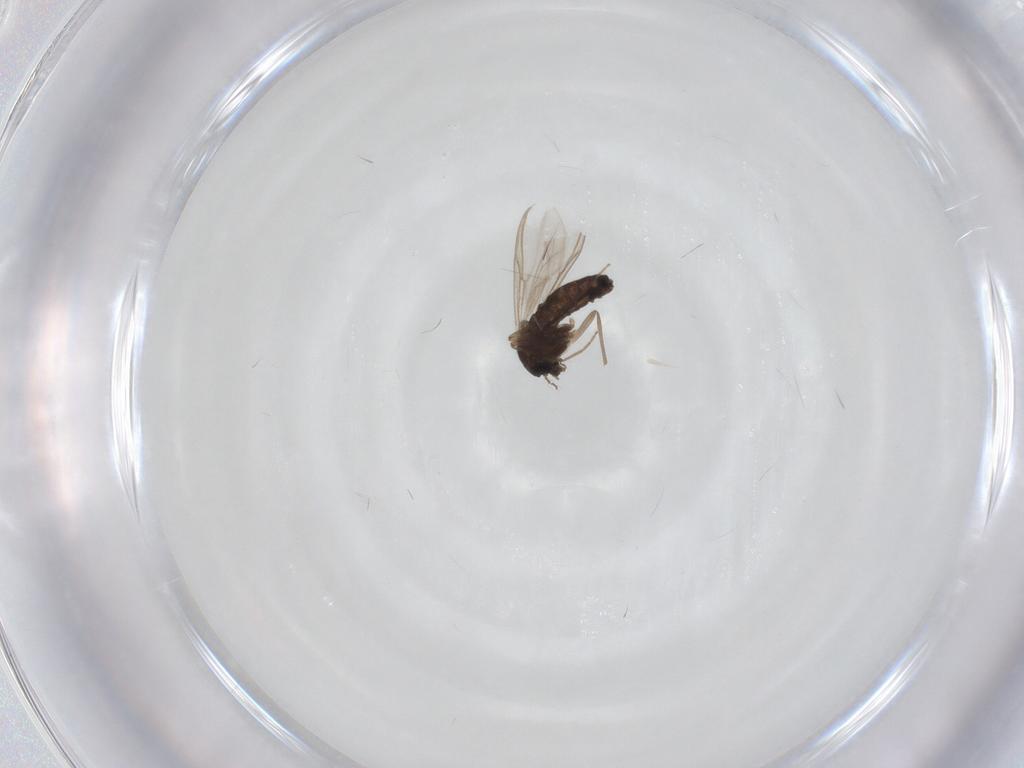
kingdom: Animalia
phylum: Arthropoda
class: Insecta
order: Diptera
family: Chironomidae
